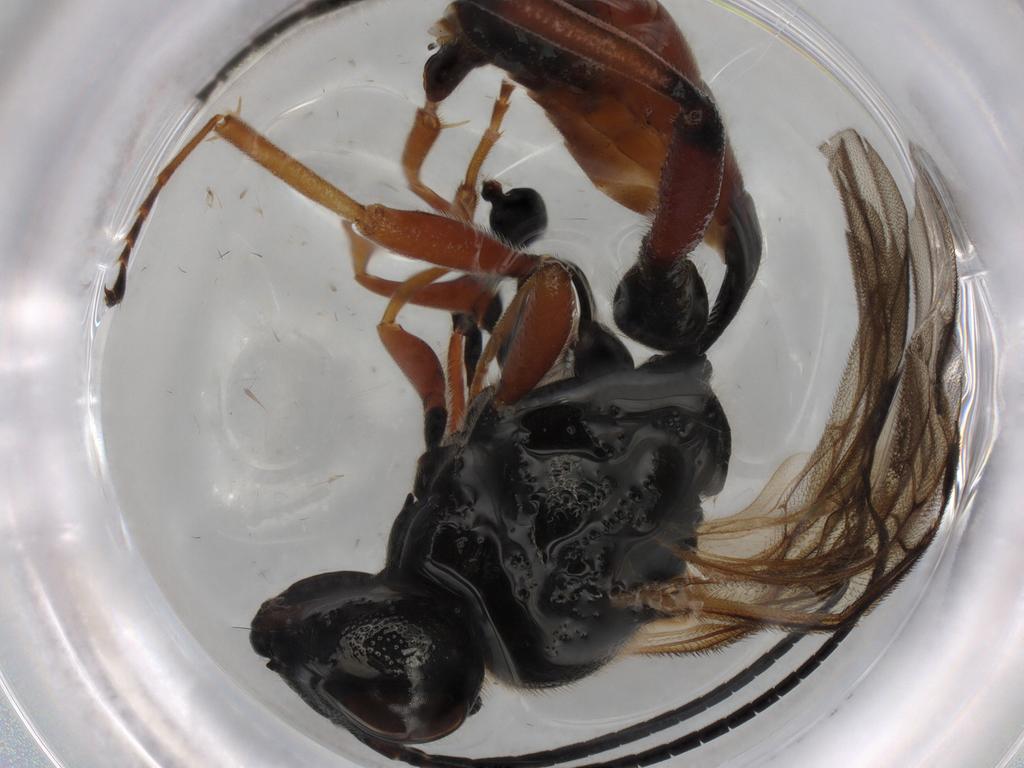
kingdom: Animalia
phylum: Arthropoda
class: Insecta
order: Hymenoptera
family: Ichneumonidae
